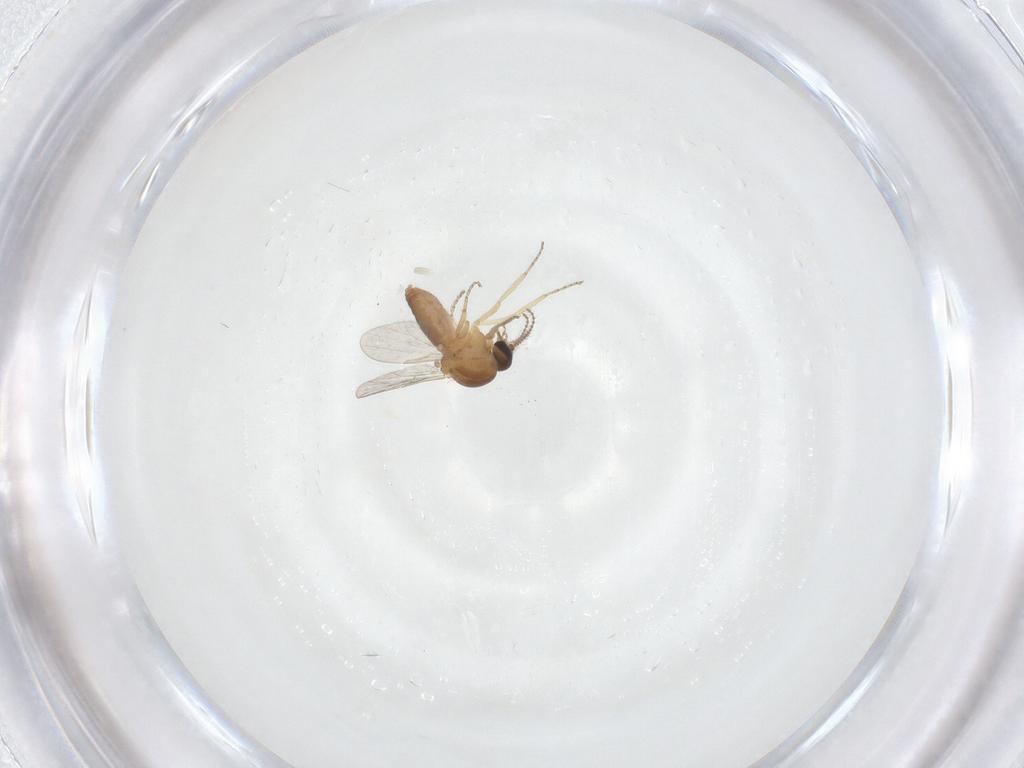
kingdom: Animalia
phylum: Arthropoda
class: Insecta
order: Diptera
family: Ceratopogonidae
